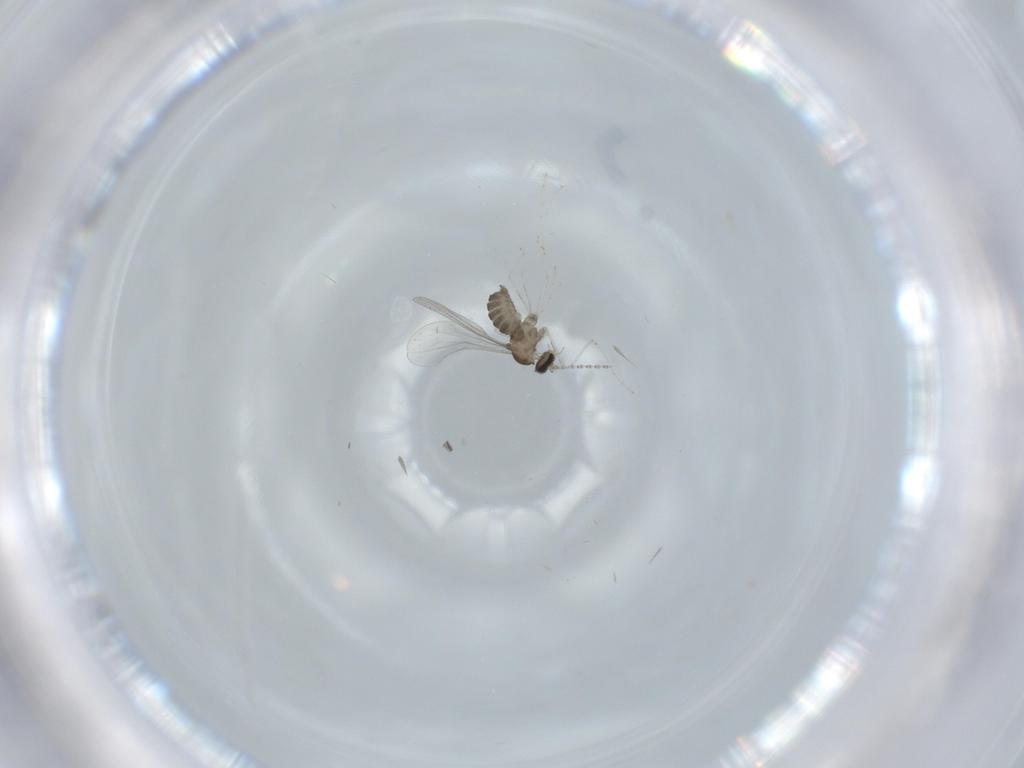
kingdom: Animalia
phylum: Arthropoda
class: Insecta
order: Diptera
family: Cecidomyiidae
